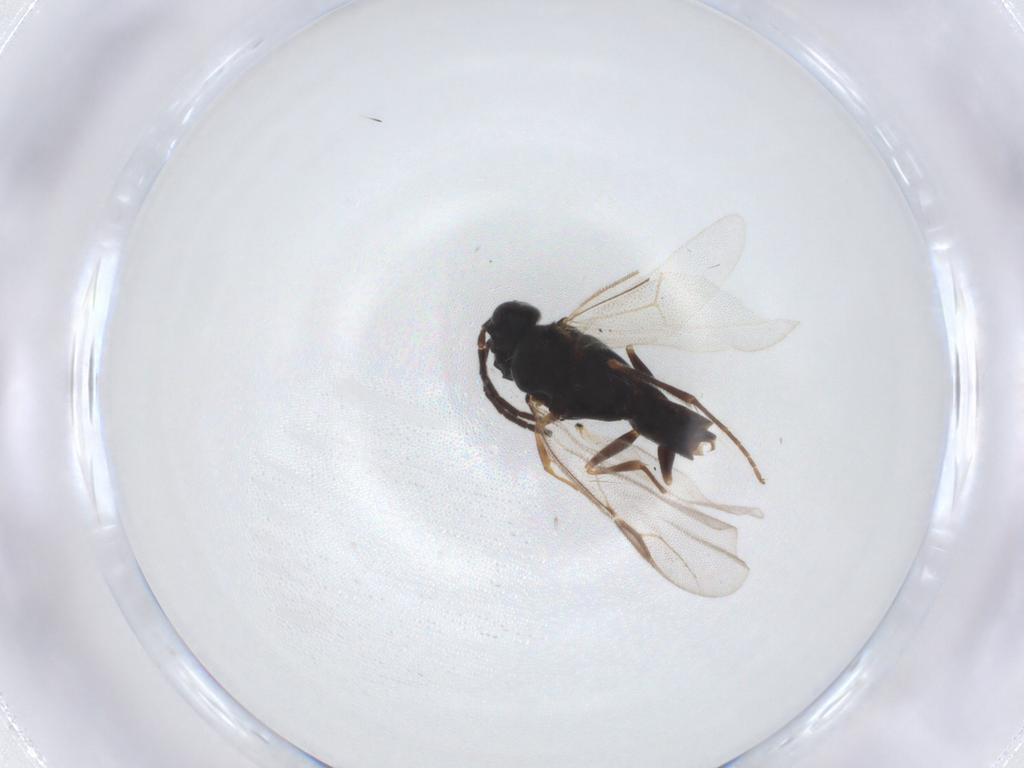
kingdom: Animalia
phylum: Arthropoda
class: Insecta
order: Hymenoptera
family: Dryinidae
